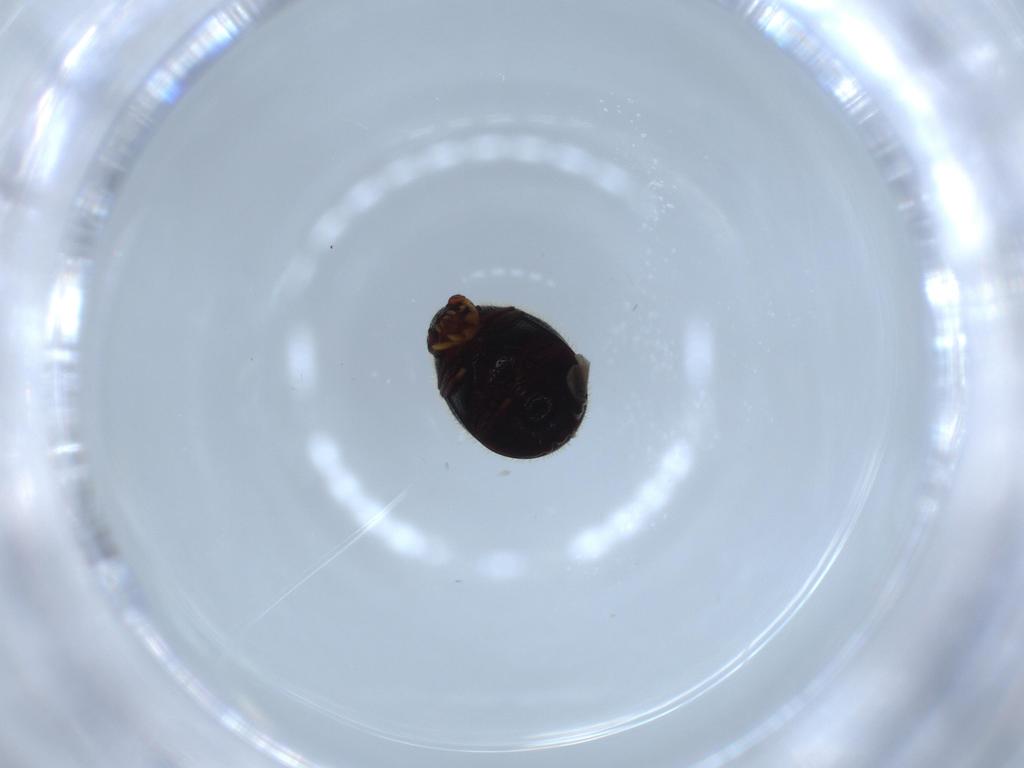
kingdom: Animalia
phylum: Arthropoda
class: Insecta
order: Coleoptera
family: Ptinidae
